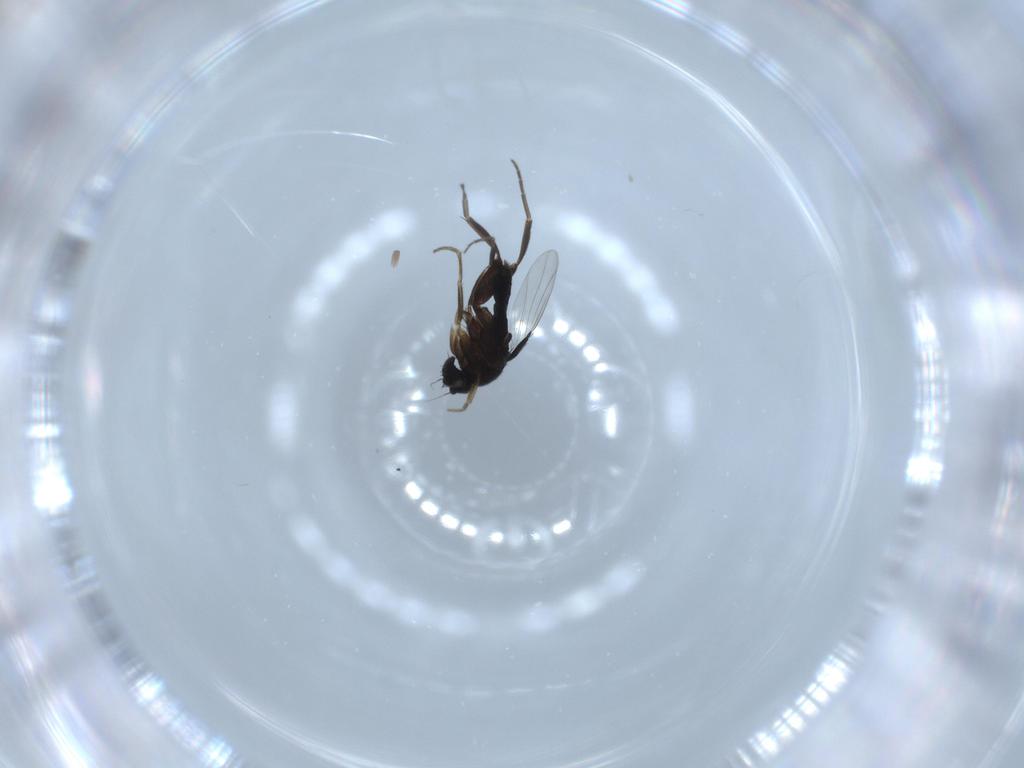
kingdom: Animalia
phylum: Arthropoda
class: Insecta
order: Diptera
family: Phoridae
